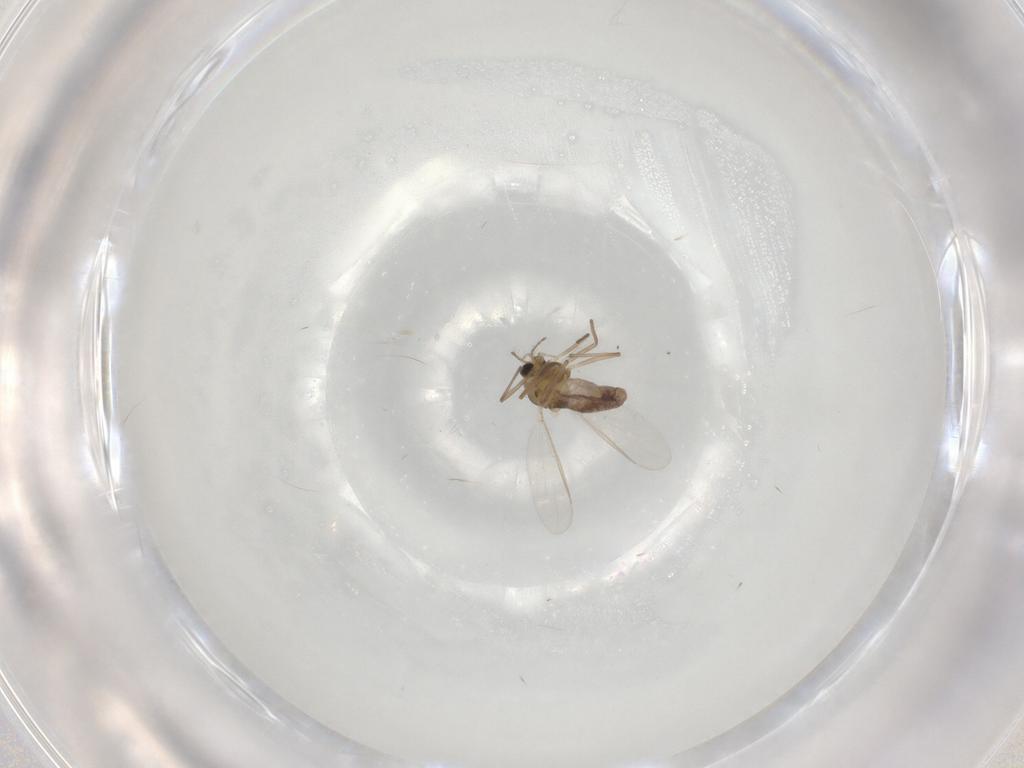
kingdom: Animalia
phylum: Arthropoda
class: Insecta
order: Diptera
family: Chironomidae
